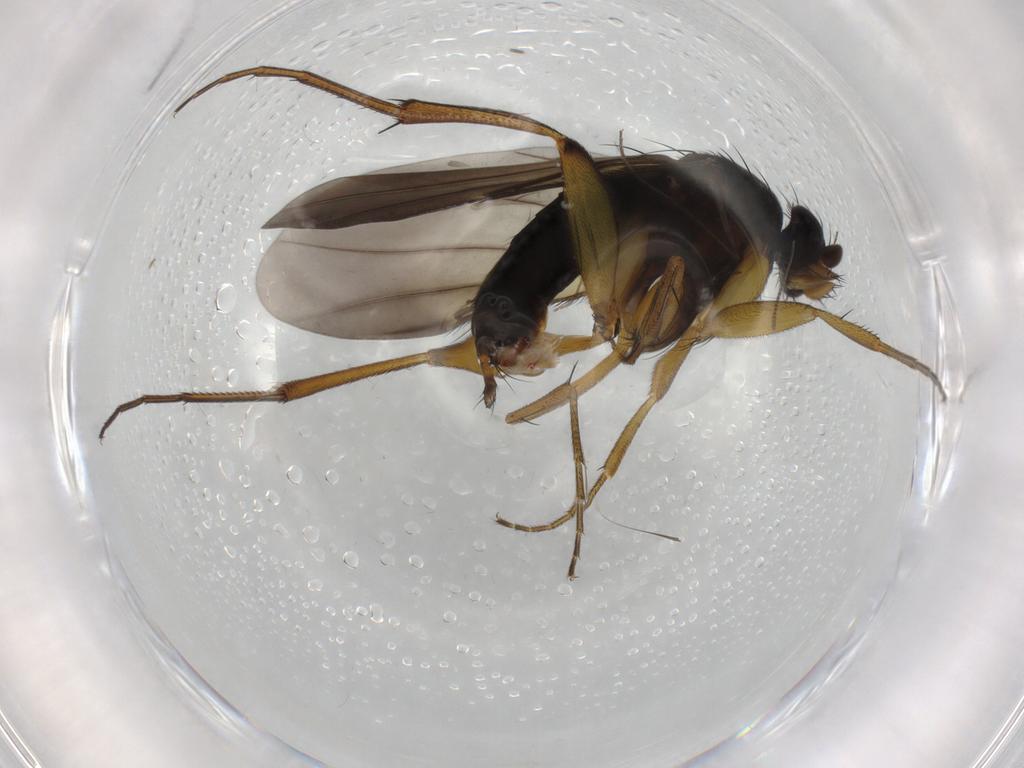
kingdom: Animalia
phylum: Arthropoda
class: Insecta
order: Diptera
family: Chironomidae
